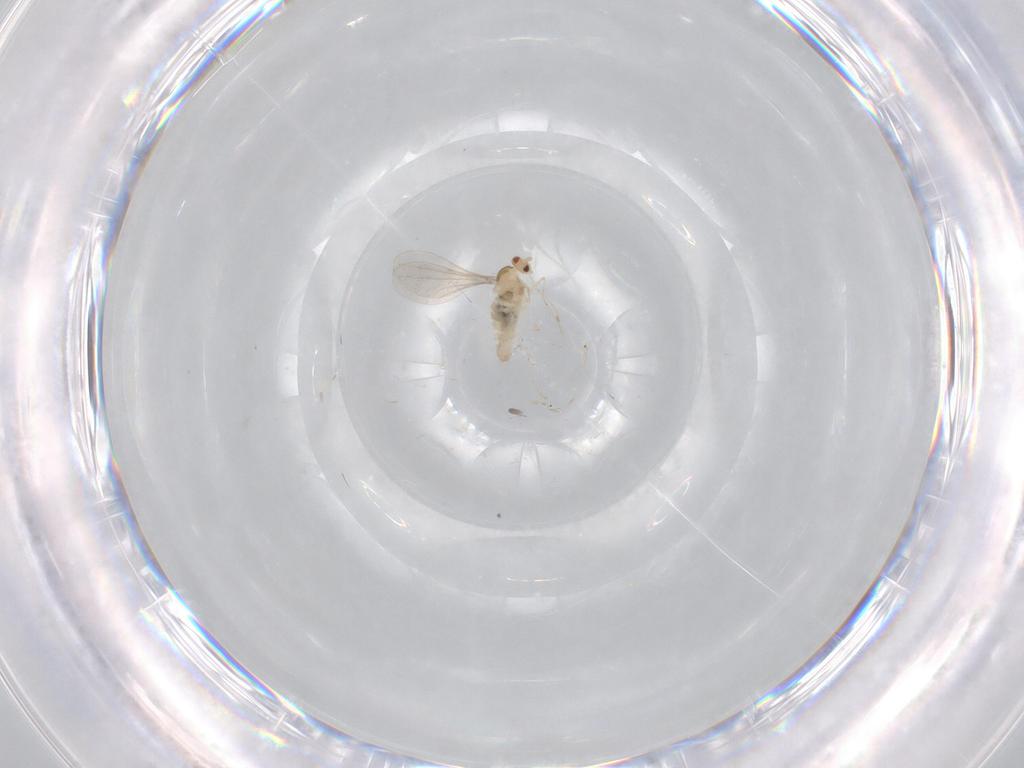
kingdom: Animalia
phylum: Arthropoda
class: Insecta
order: Diptera
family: Cecidomyiidae
